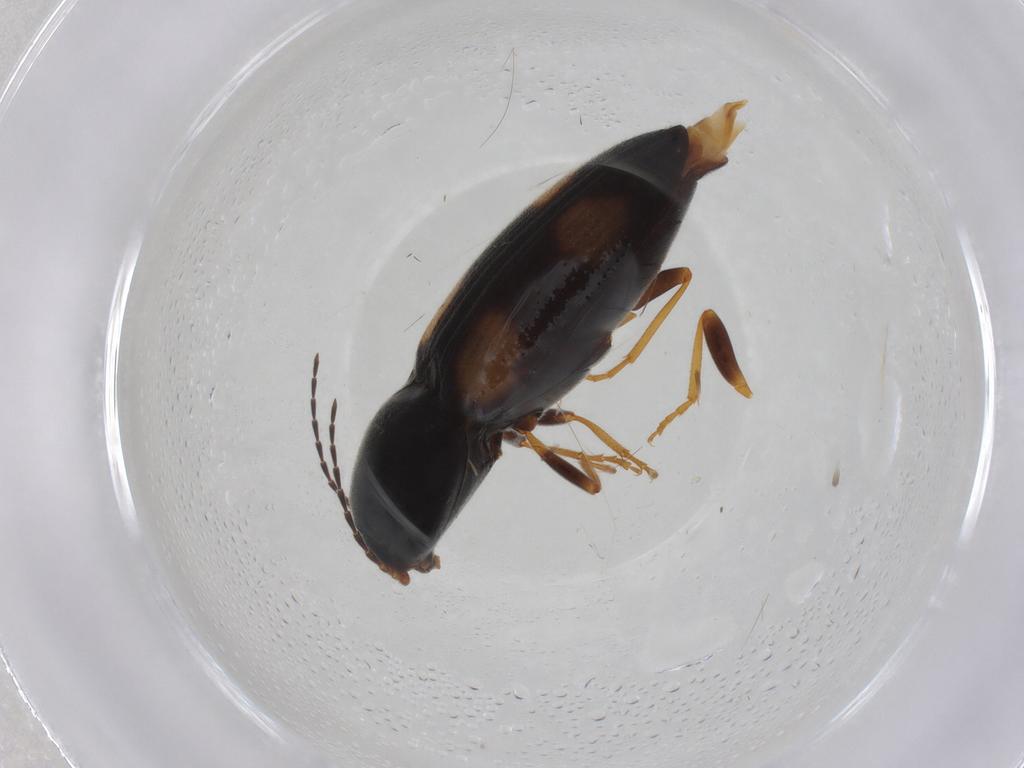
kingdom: Animalia
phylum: Arthropoda
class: Insecta
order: Coleoptera
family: Elateridae
